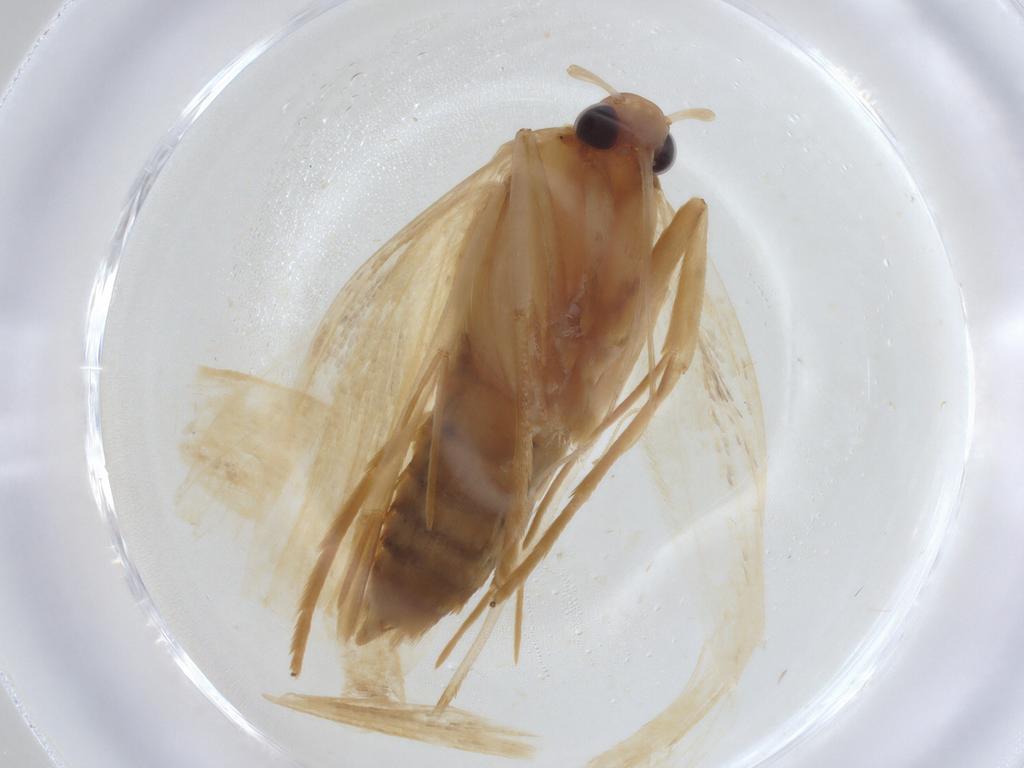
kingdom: Animalia
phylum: Arthropoda
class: Insecta
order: Lepidoptera
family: Lecithoceridae
